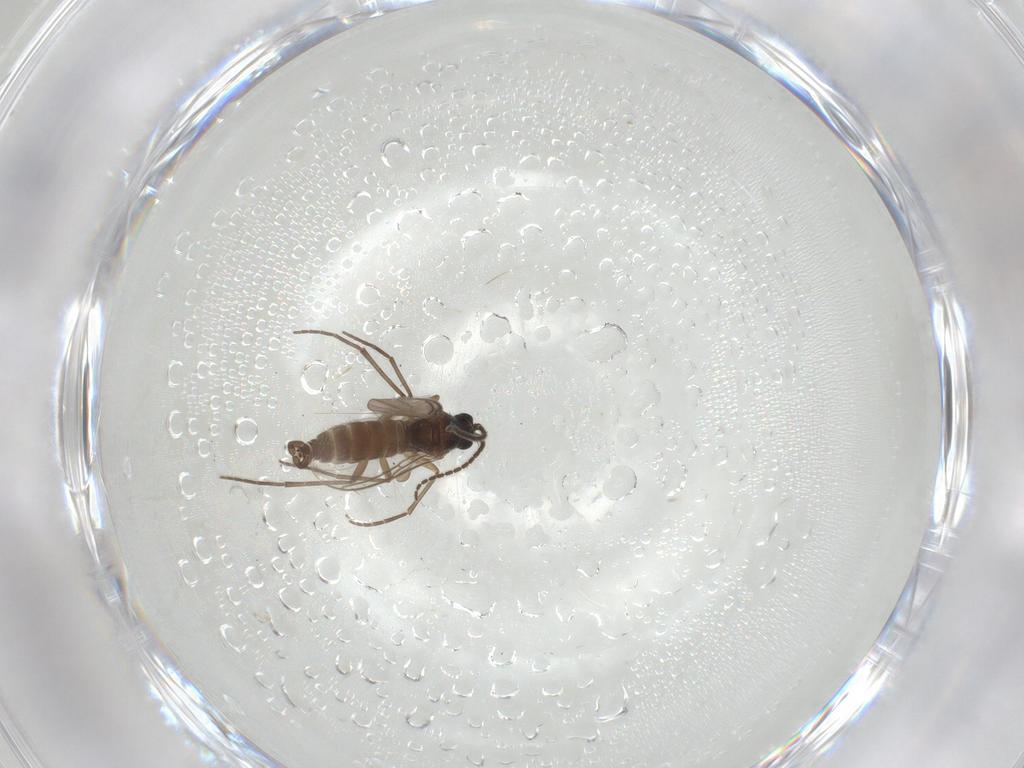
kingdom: Animalia
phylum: Arthropoda
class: Insecta
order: Diptera
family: Sciaridae
